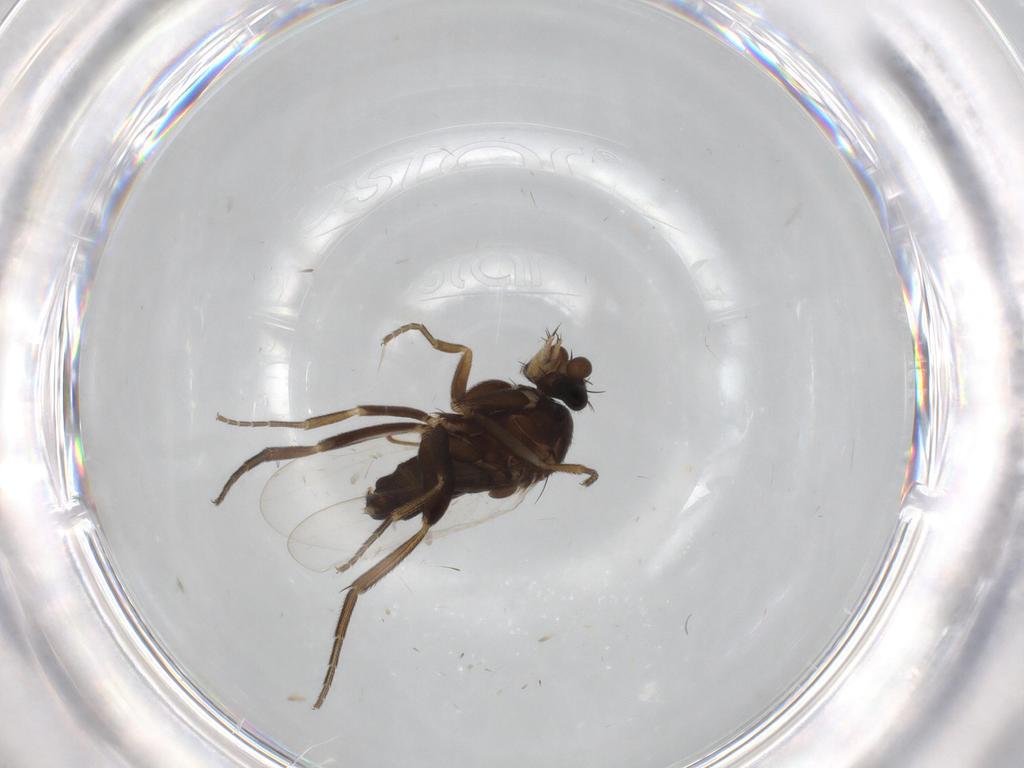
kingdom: Animalia
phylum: Arthropoda
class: Insecta
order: Diptera
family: Phoridae
